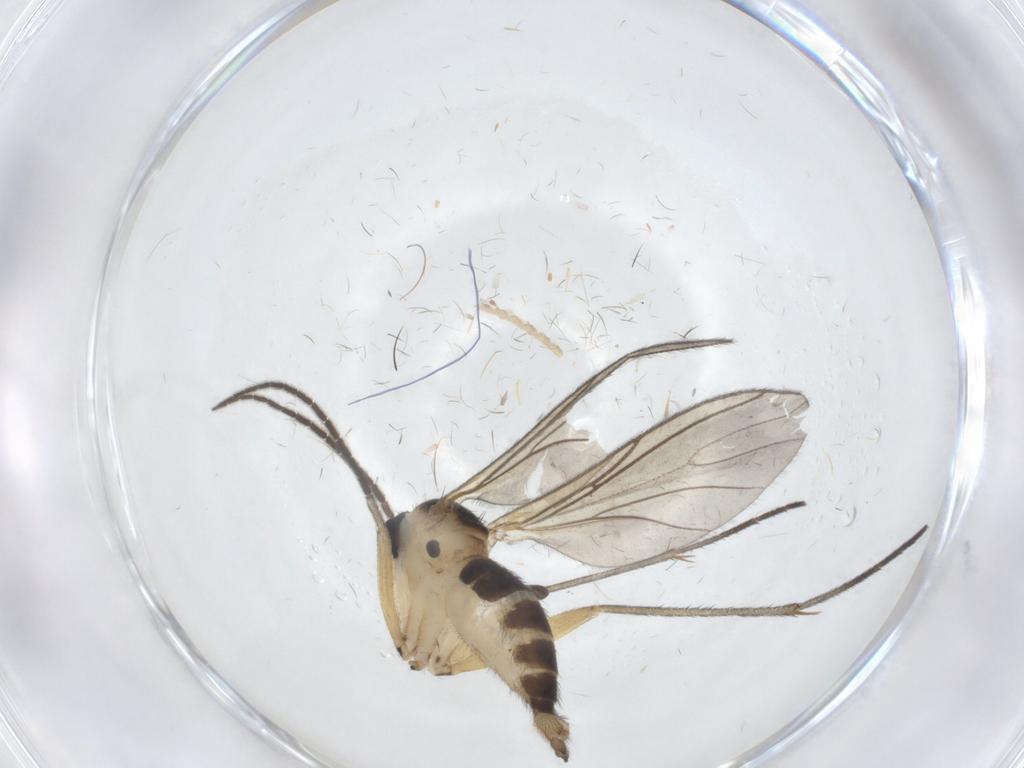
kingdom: Animalia
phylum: Arthropoda
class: Insecta
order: Diptera
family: Sciaridae
